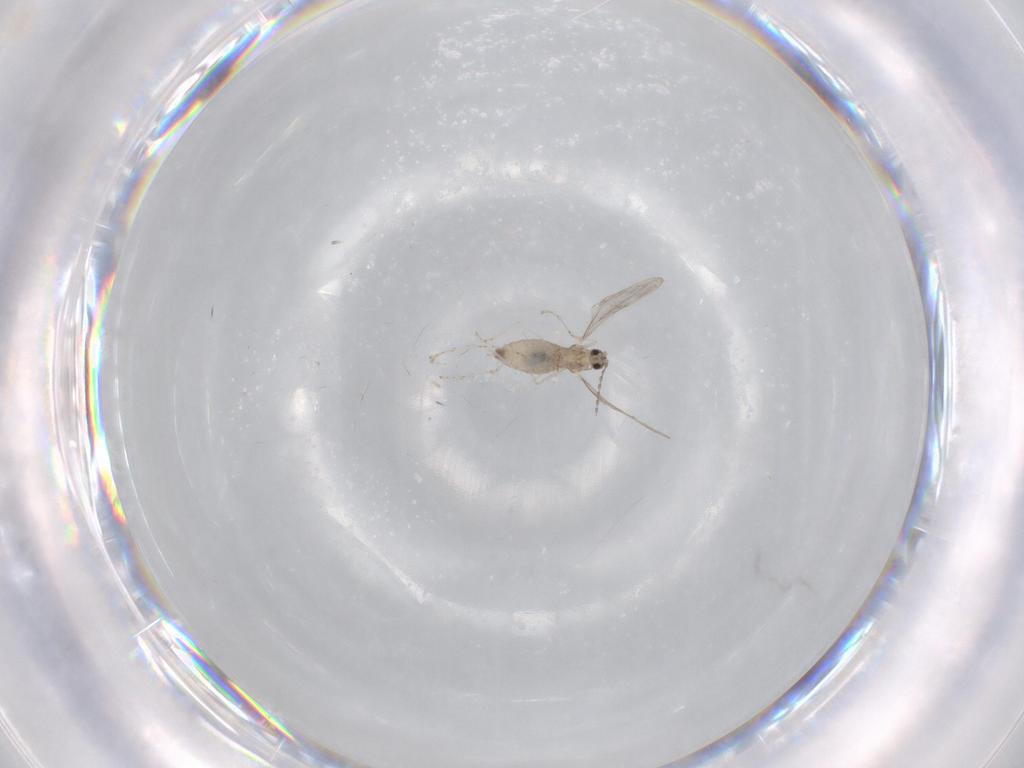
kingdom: Animalia
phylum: Arthropoda
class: Insecta
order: Diptera
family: Cecidomyiidae
